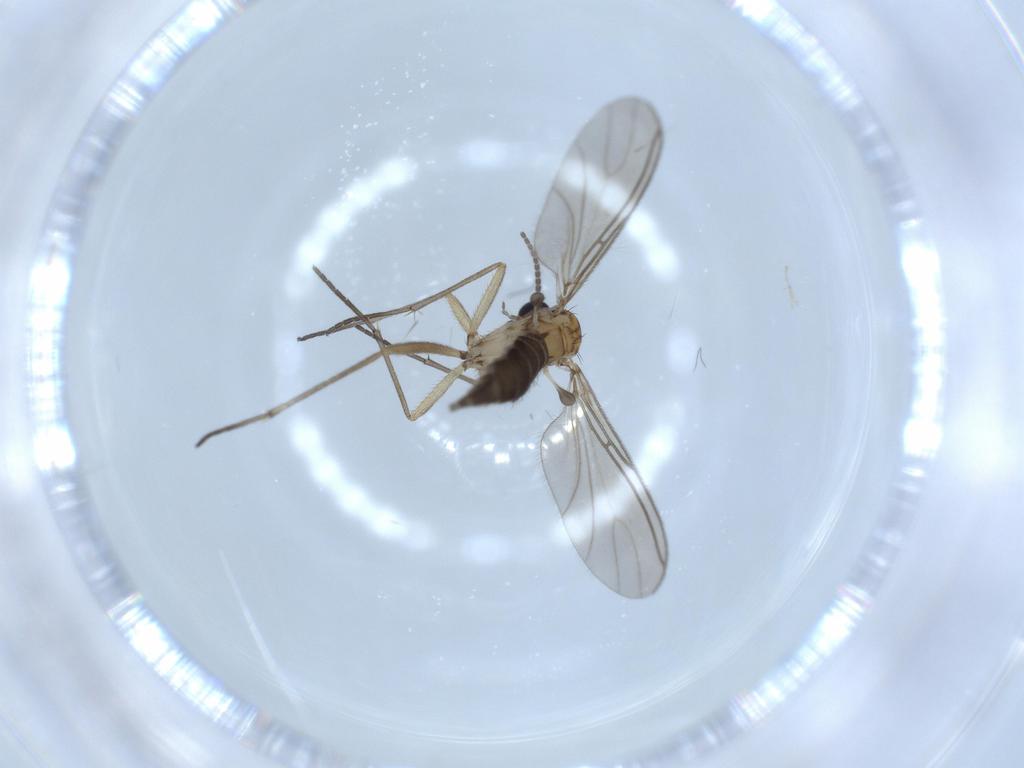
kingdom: Animalia
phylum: Arthropoda
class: Insecta
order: Diptera
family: Sciaridae
